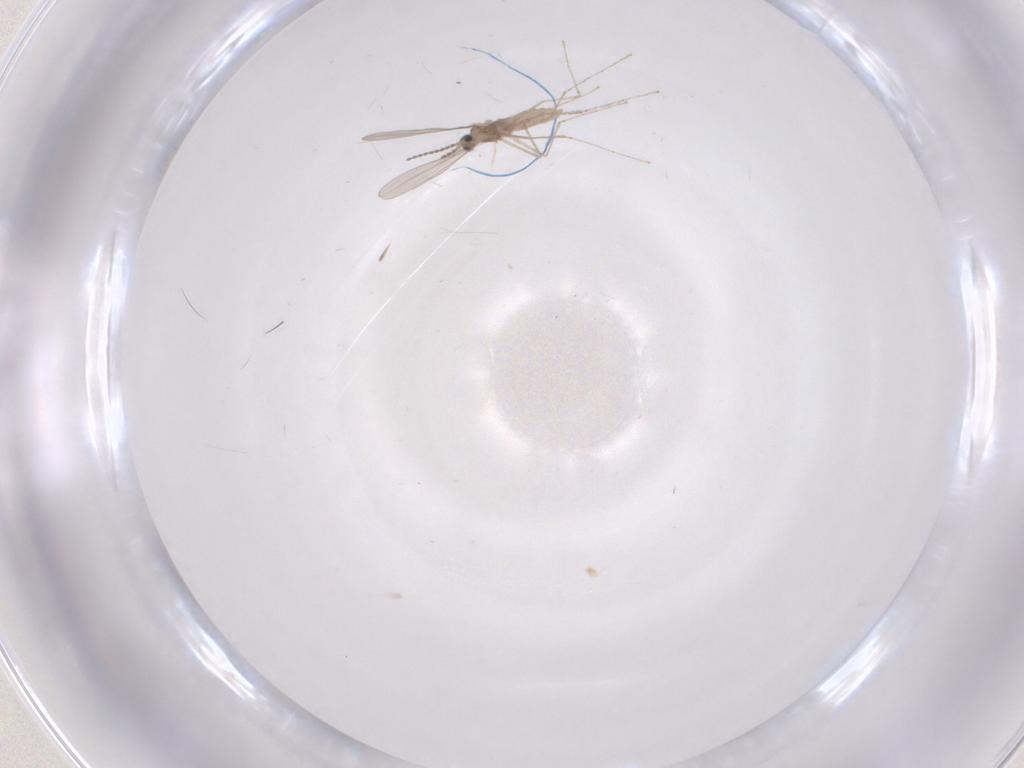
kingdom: Animalia
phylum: Arthropoda
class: Insecta
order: Diptera
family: Cecidomyiidae
